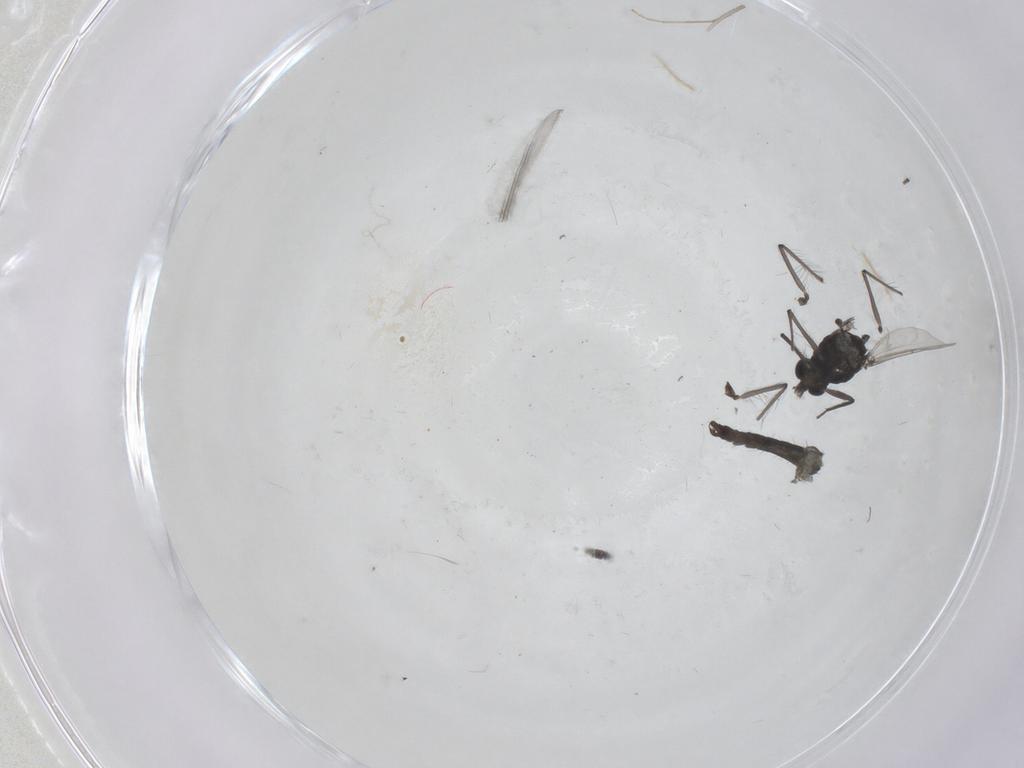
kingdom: Animalia
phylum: Arthropoda
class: Insecta
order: Diptera
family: Chironomidae
